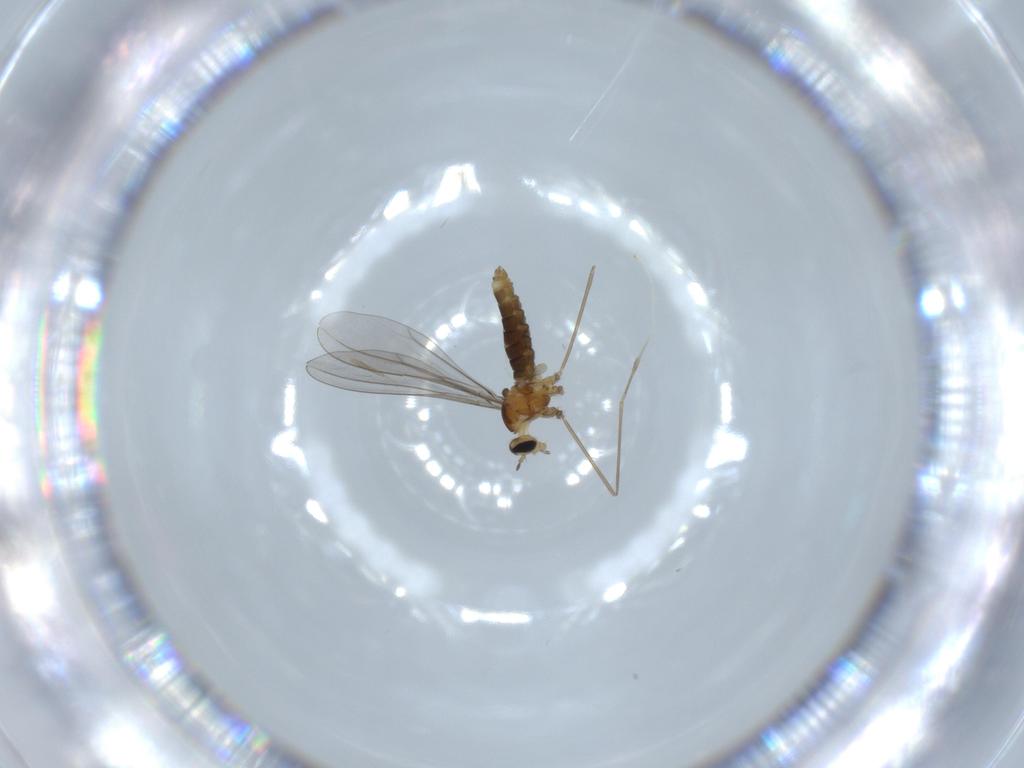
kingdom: Animalia
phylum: Arthropoda
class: Insecta
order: Diptera
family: Cecidomyiidae
